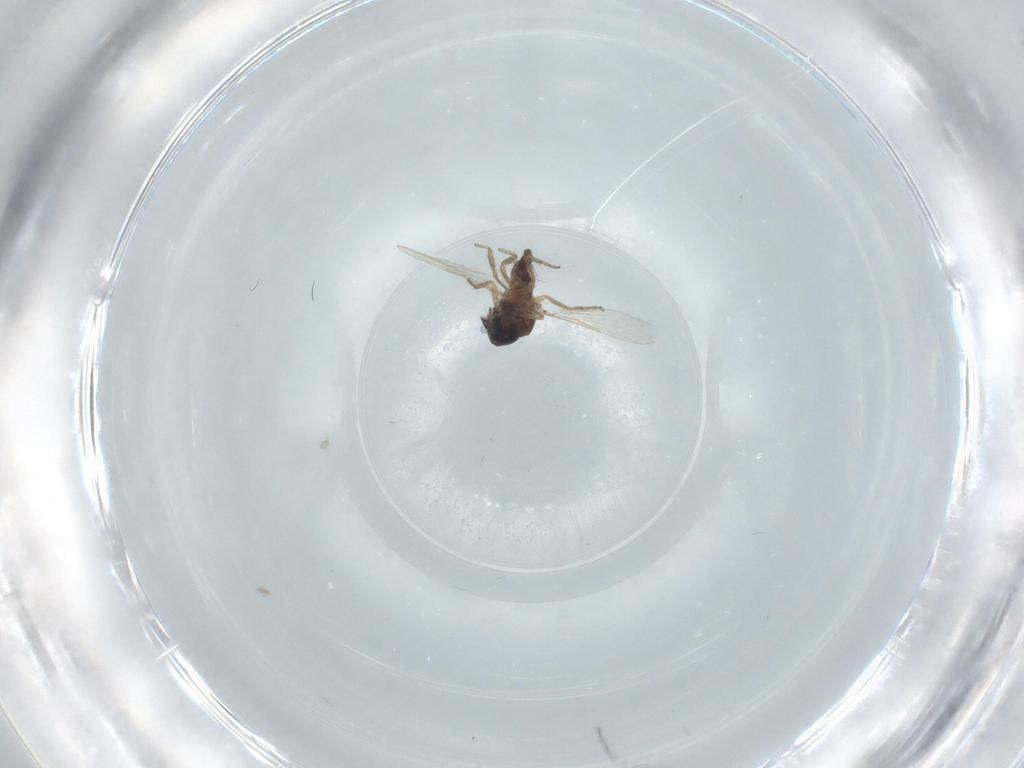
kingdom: Animalia
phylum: Arthropoda
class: Insecta
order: Diptera
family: Ceratopogonidae
